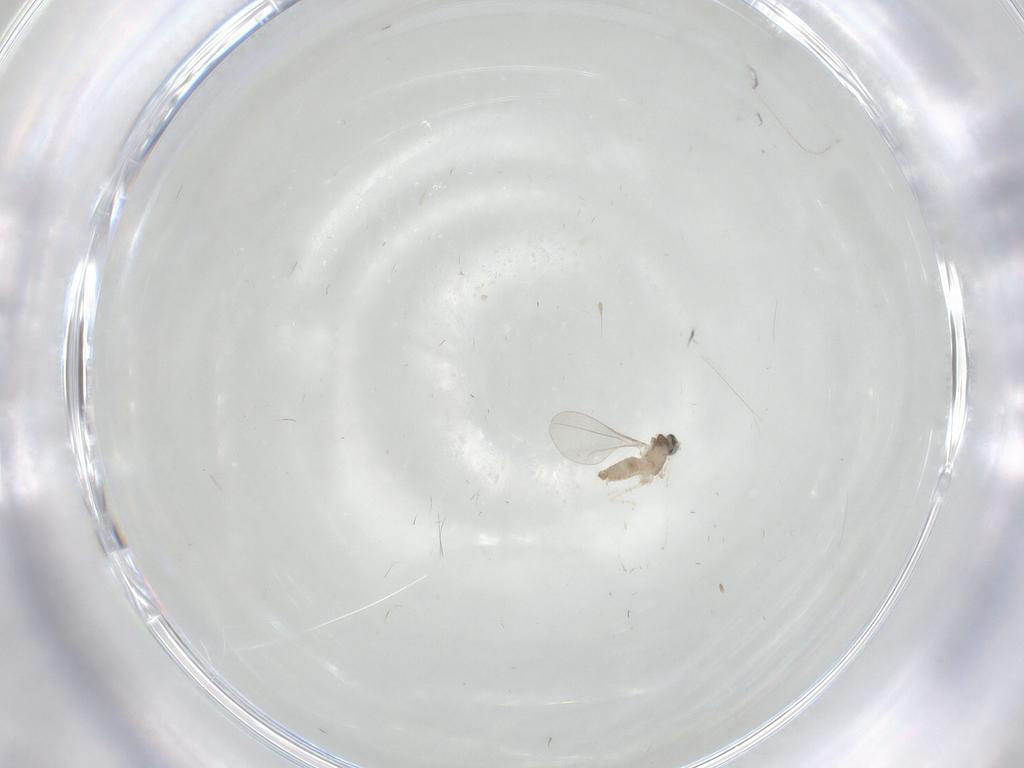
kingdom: Animalia
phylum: Arthropoda
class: Insecta
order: Diptera
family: Cecidomyiidae
